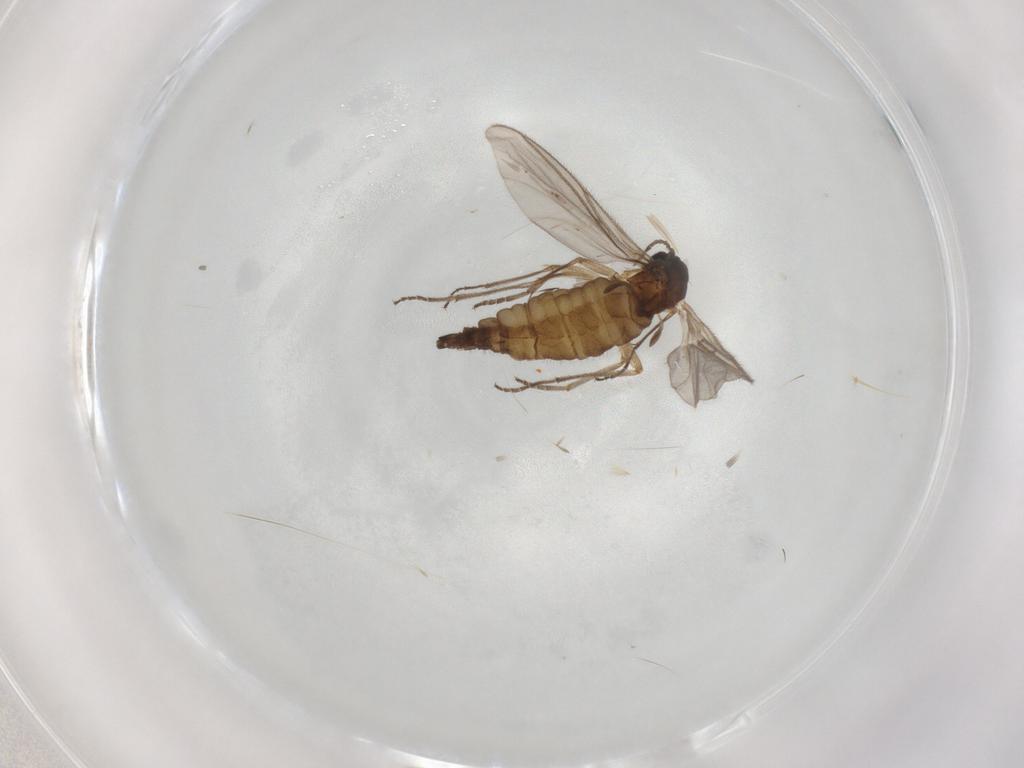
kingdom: Animalia
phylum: Arthropoda
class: Insecta
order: Diptera
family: Sciaridae
